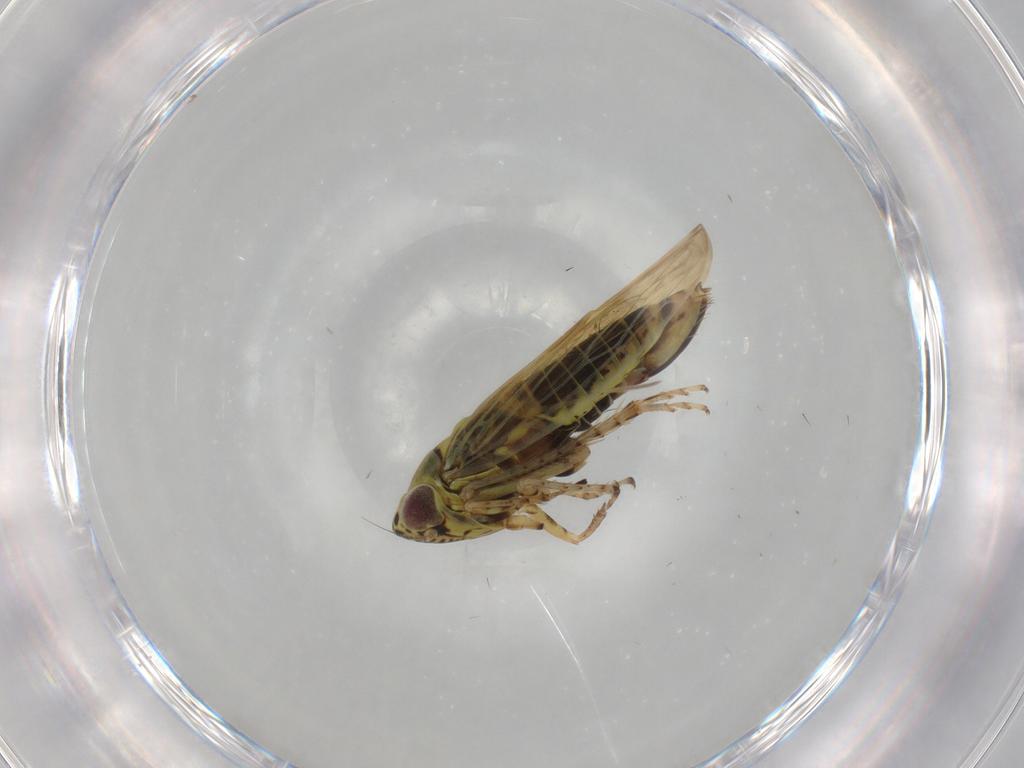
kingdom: Animalia
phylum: Arthropoda
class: Insecta
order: Hemiptera
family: Cicadellidae
